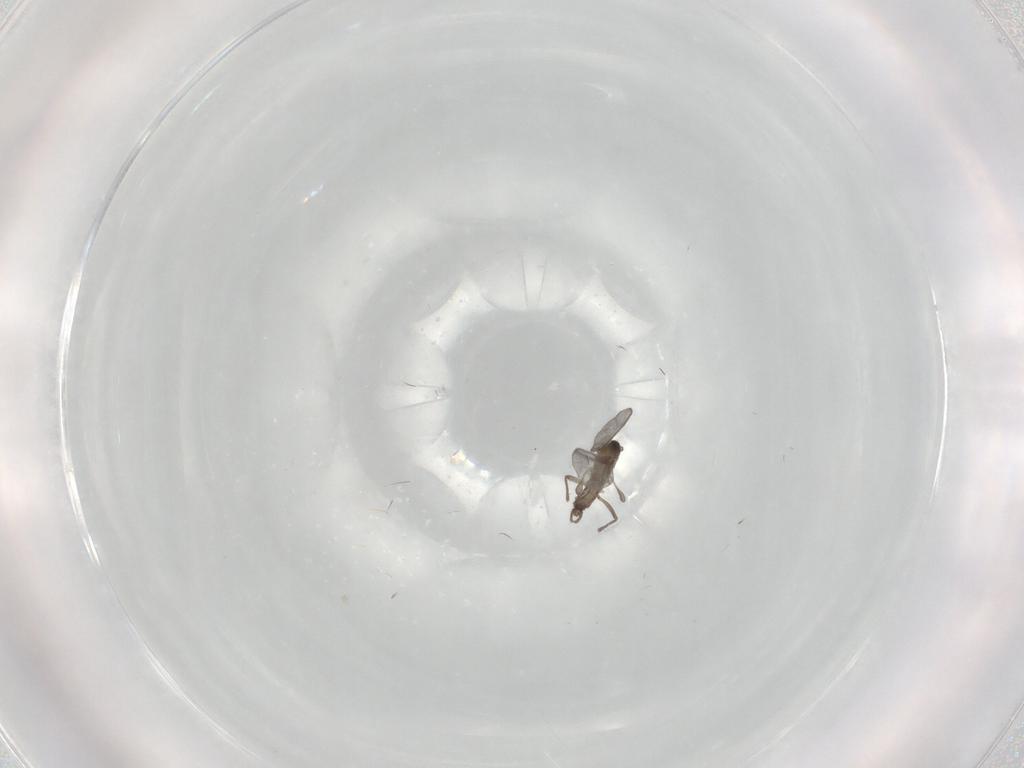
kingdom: Animalia
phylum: Arthropoda
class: Insecta
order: Diptera
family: Sciaridae
